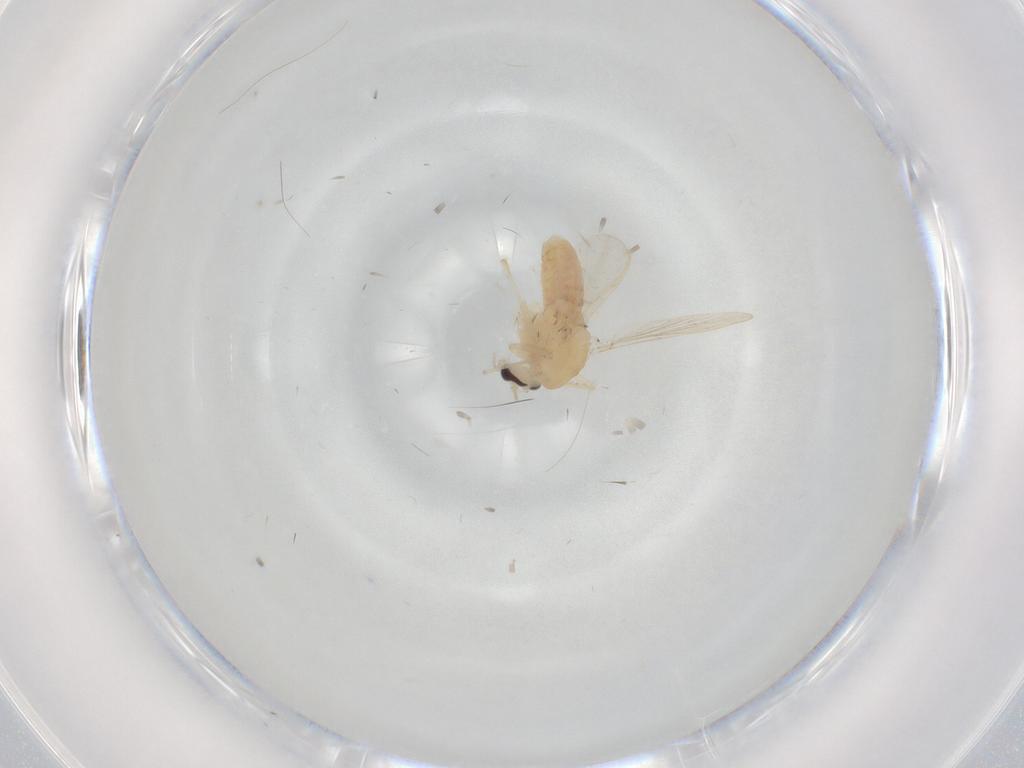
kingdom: Animalia
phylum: Arthropoda
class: Insecta
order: Diptera
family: Chironomidae
